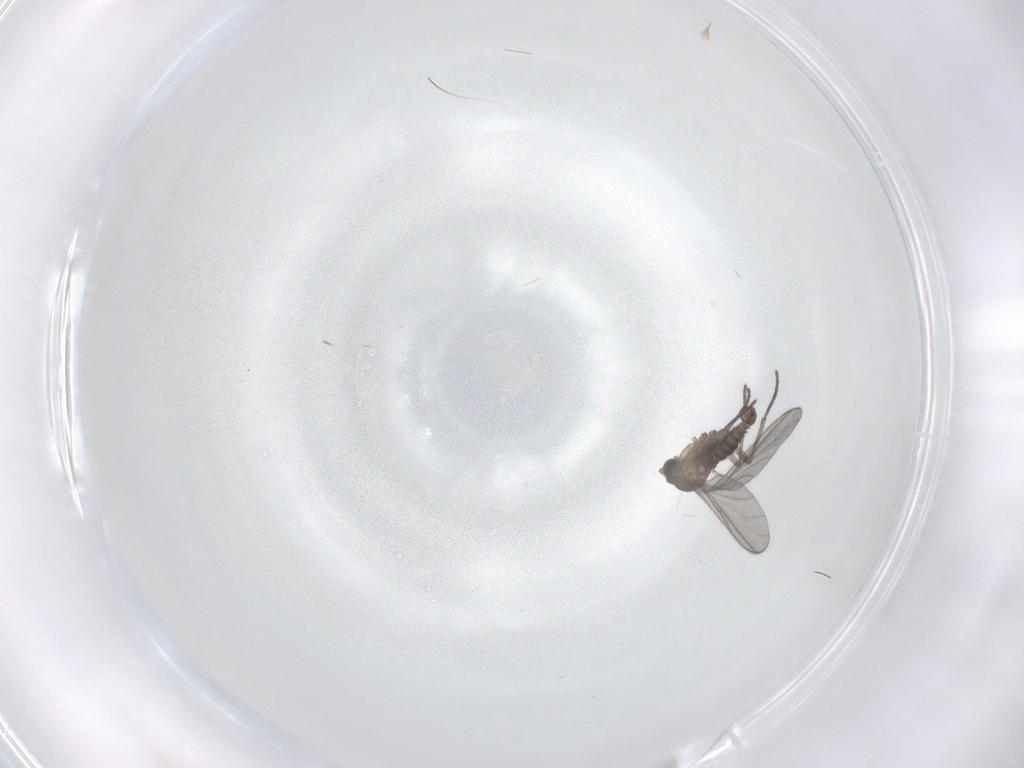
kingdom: Animalia
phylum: Arthropoda
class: Insecta
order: Diptera
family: Sciaridae
